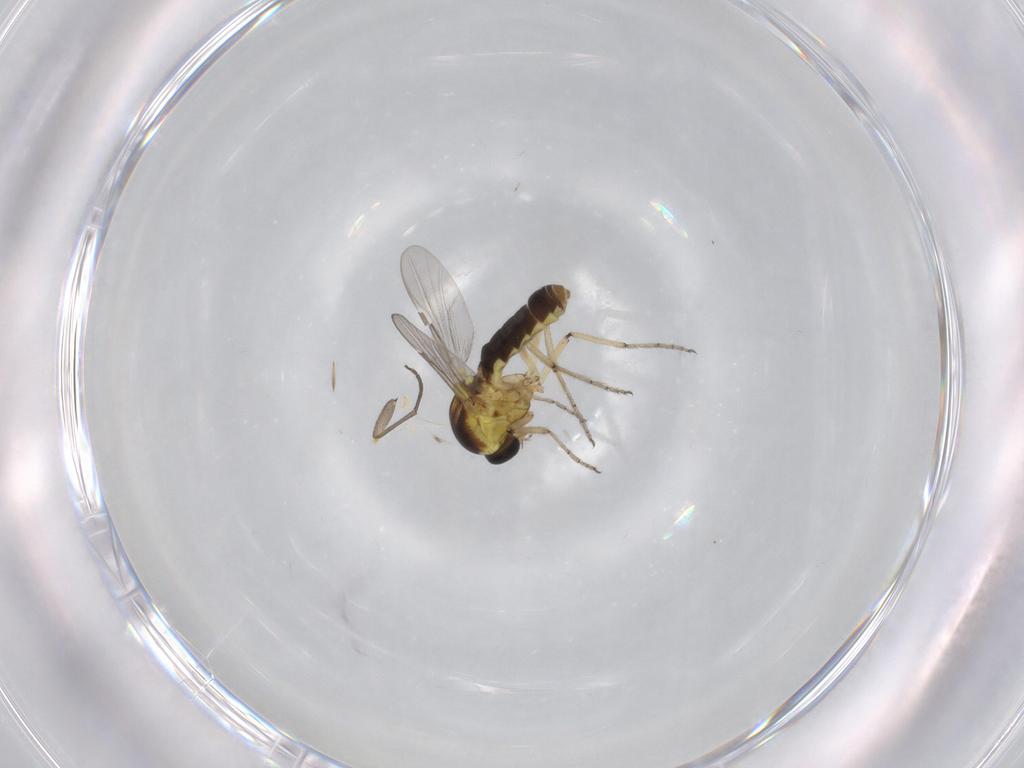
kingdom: Animalia
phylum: Arthropoda
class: Insecta
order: Diptera
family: Ceratopogonidae
